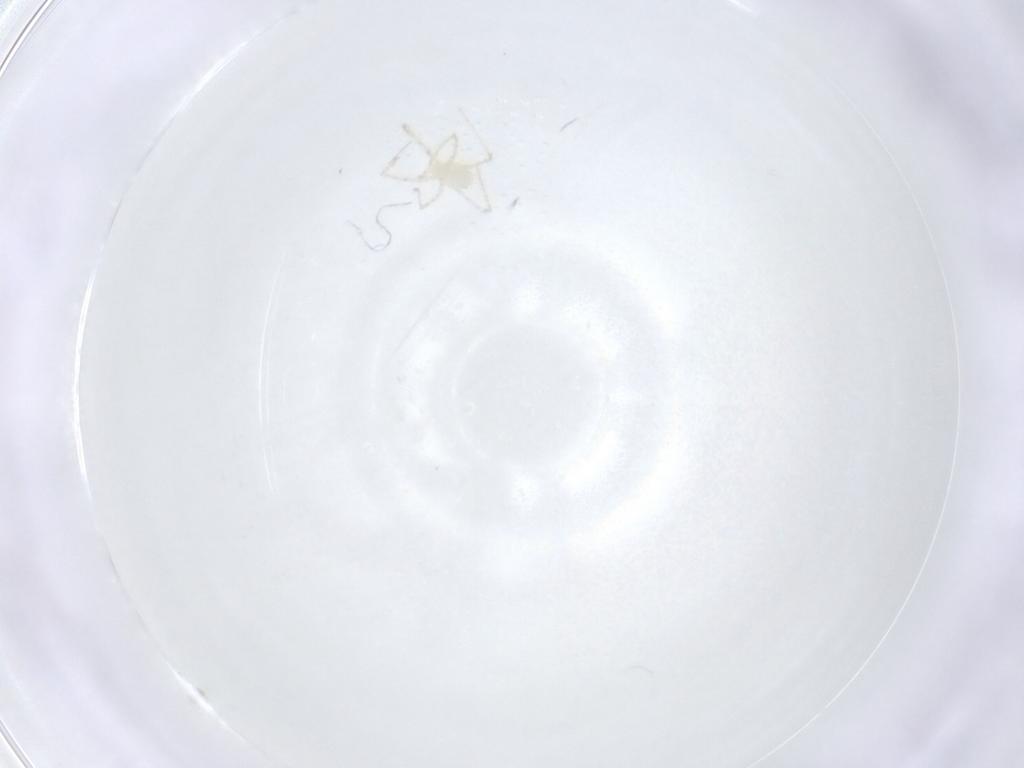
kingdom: Animalia
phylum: Arthropoda
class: Arachnida
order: Trombidiformes
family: Erythraeidae
